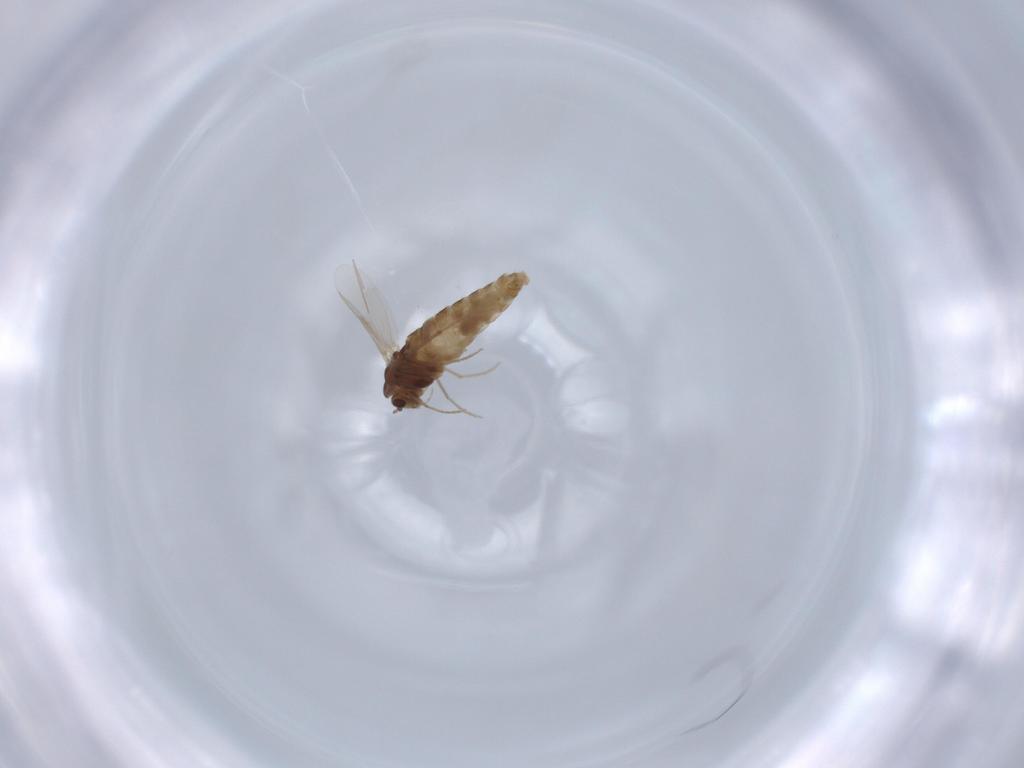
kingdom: Animalia
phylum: Arthropoda
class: Insecta
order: Diptera
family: Chironomidae
